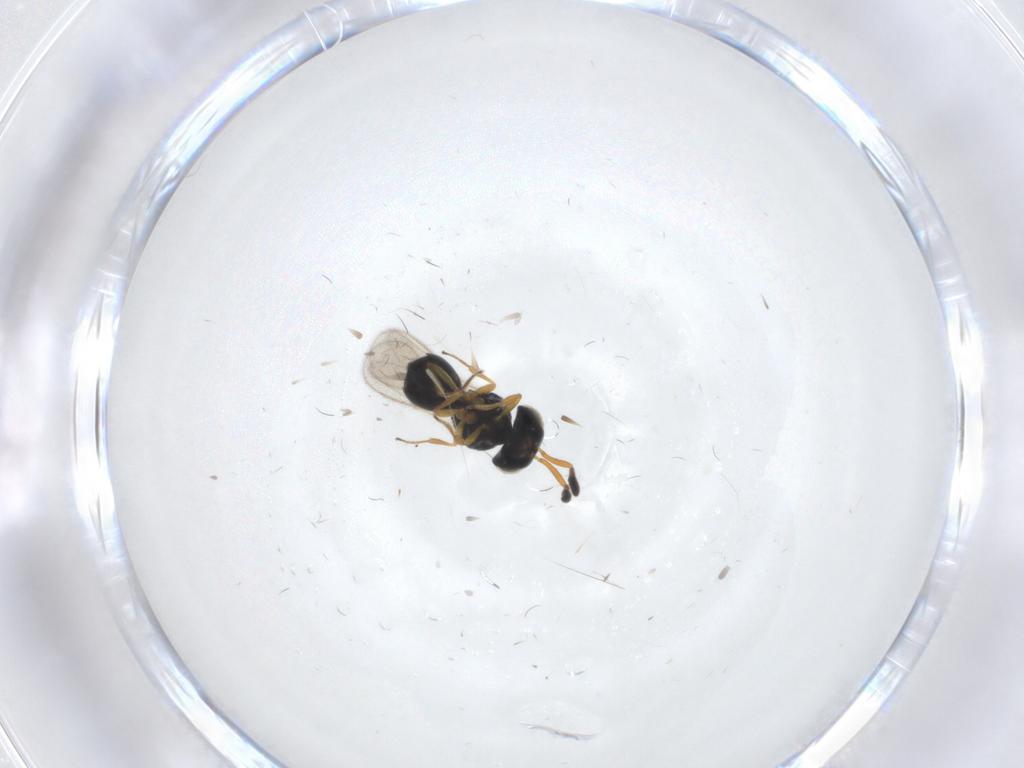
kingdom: Animalia
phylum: Arthropoda
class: Insecta
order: Hymenoptera
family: Scelionidae
